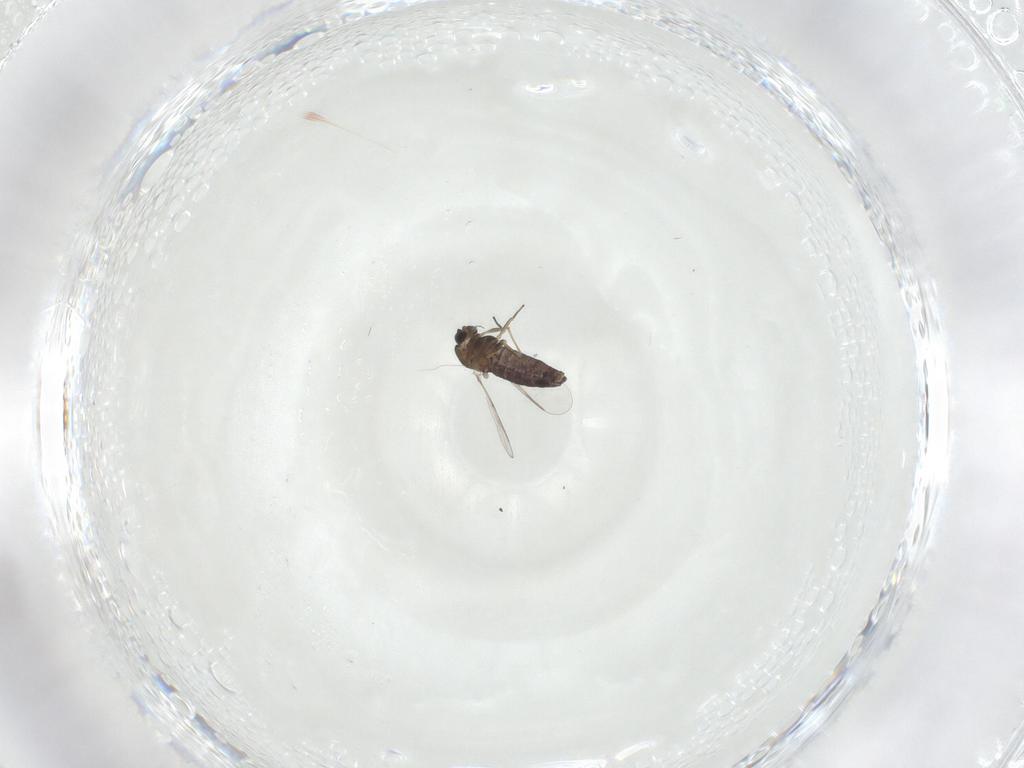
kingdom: Animalia
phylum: Arthropoda
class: Insecta
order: Diptera
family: Chironomidae
